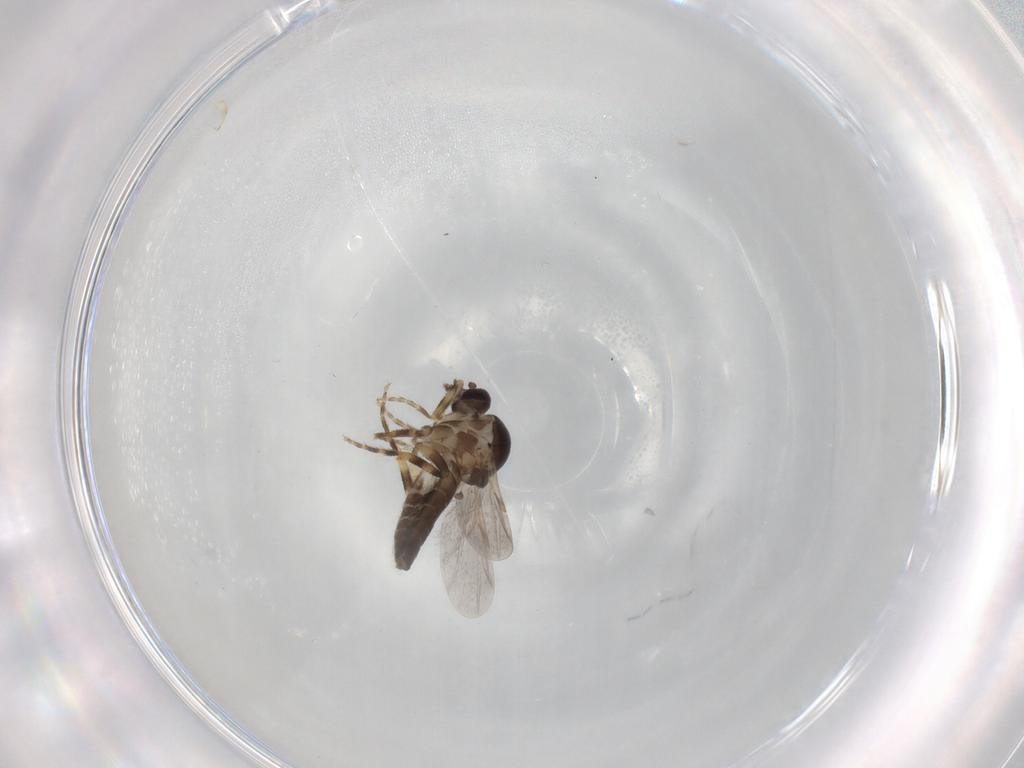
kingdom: Animalia
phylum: Arthropoda
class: Insecta
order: Diptera
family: Ceratopogonidae
